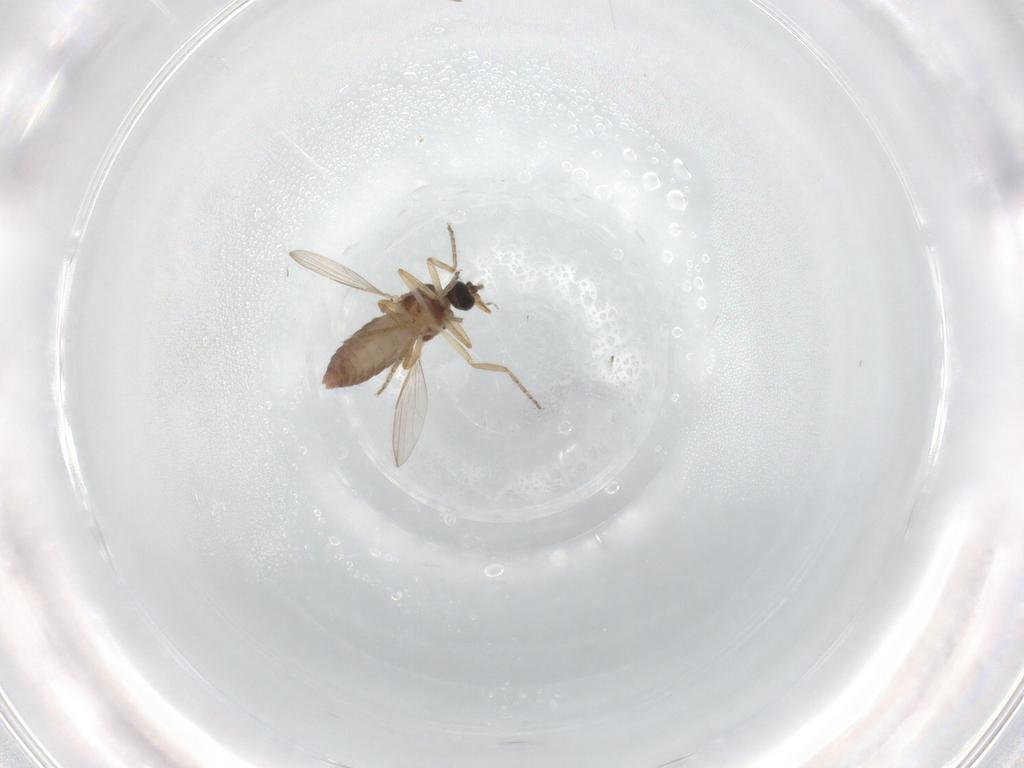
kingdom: Animalia
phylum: Arthropoda
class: Insecta
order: Diptera
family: Ceratopogonidae
